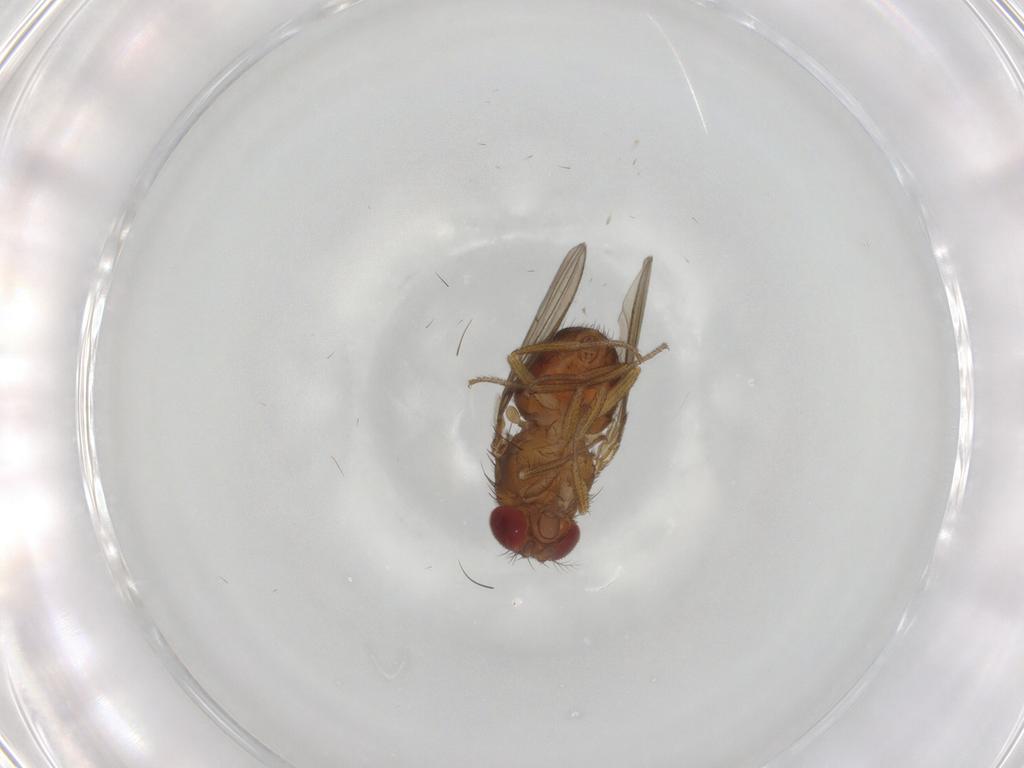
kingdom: Animalia
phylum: Arthropoda
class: Insecta
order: Diptera
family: Drosophilidae
